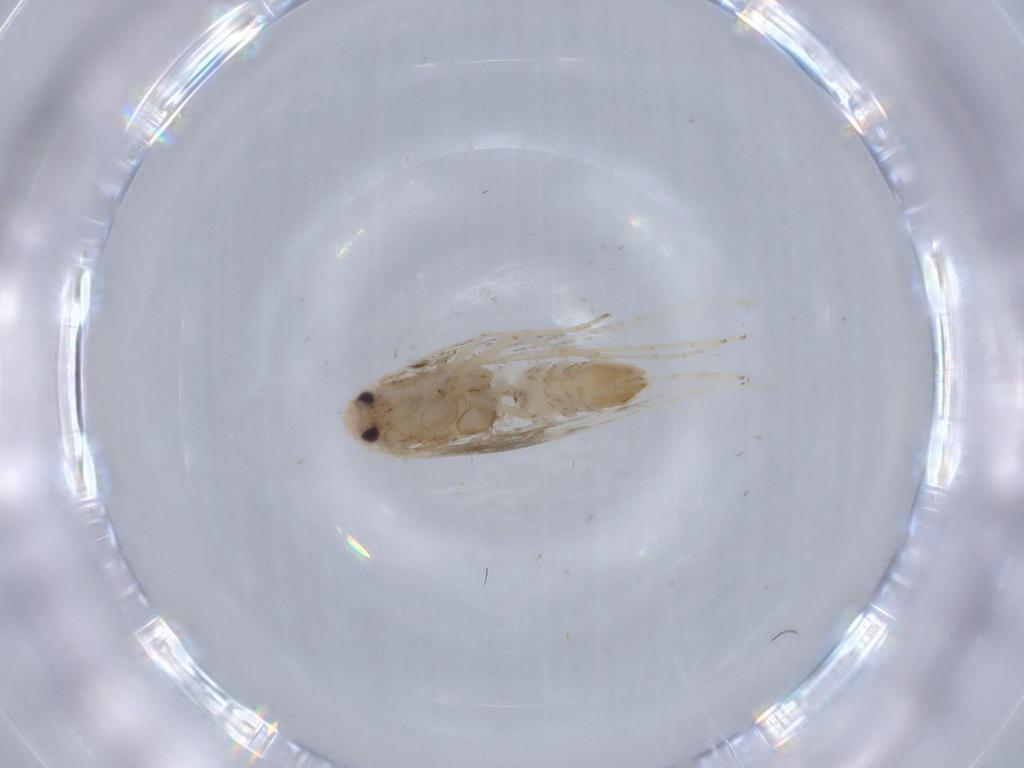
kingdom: Animalia
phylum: Arthropoda
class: Insecta
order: Lepidoptera
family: Gracillariidae
